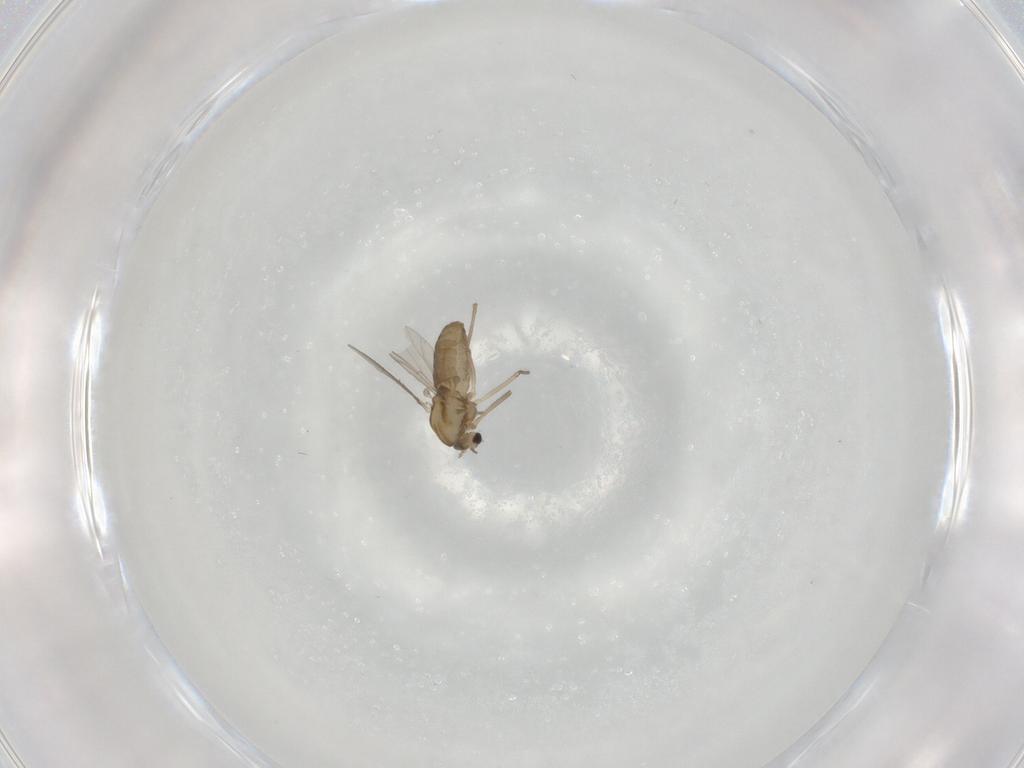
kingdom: Animalia
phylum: Arthropoda
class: Insecta
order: Diptera
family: Chironomidae
